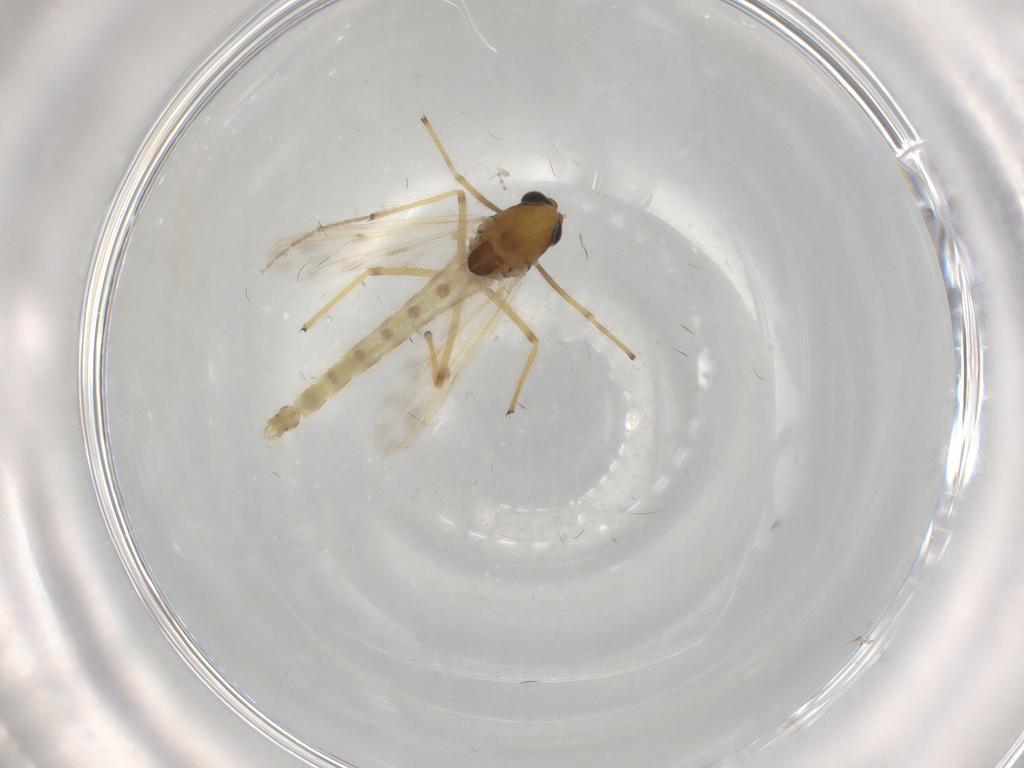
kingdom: Animalia
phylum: Arthropoda
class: Insecta
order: Diptera
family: Chironomidae
